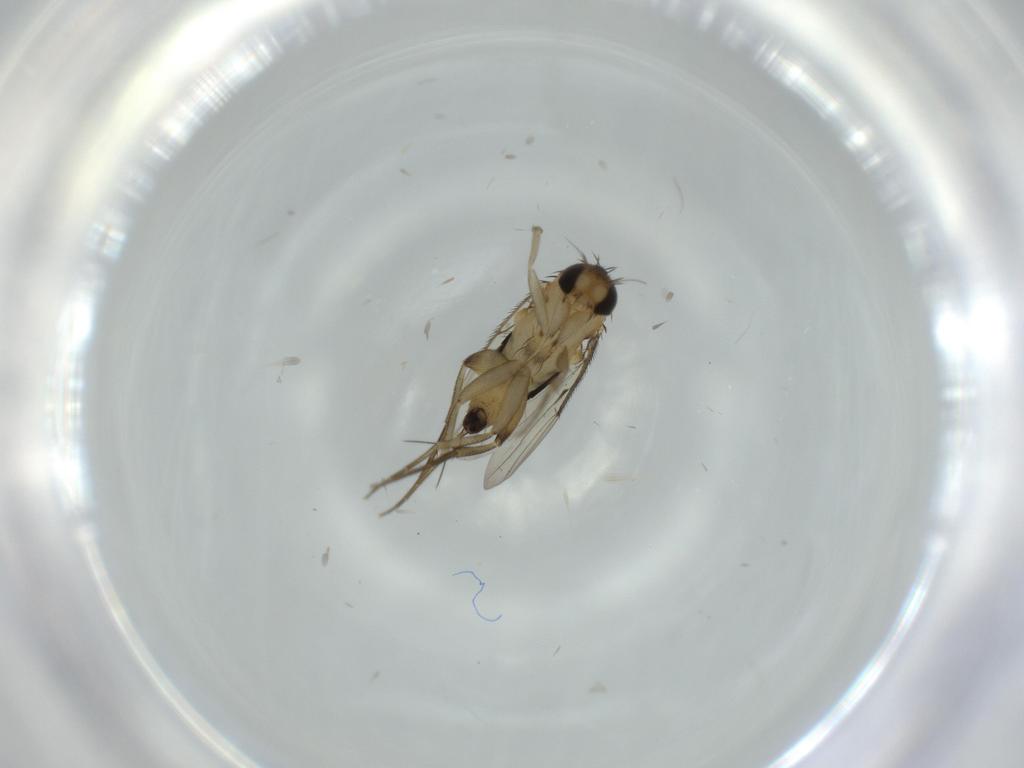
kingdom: Animalia
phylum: Arthropoda
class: Insecta
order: Diptera
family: Phoridae
